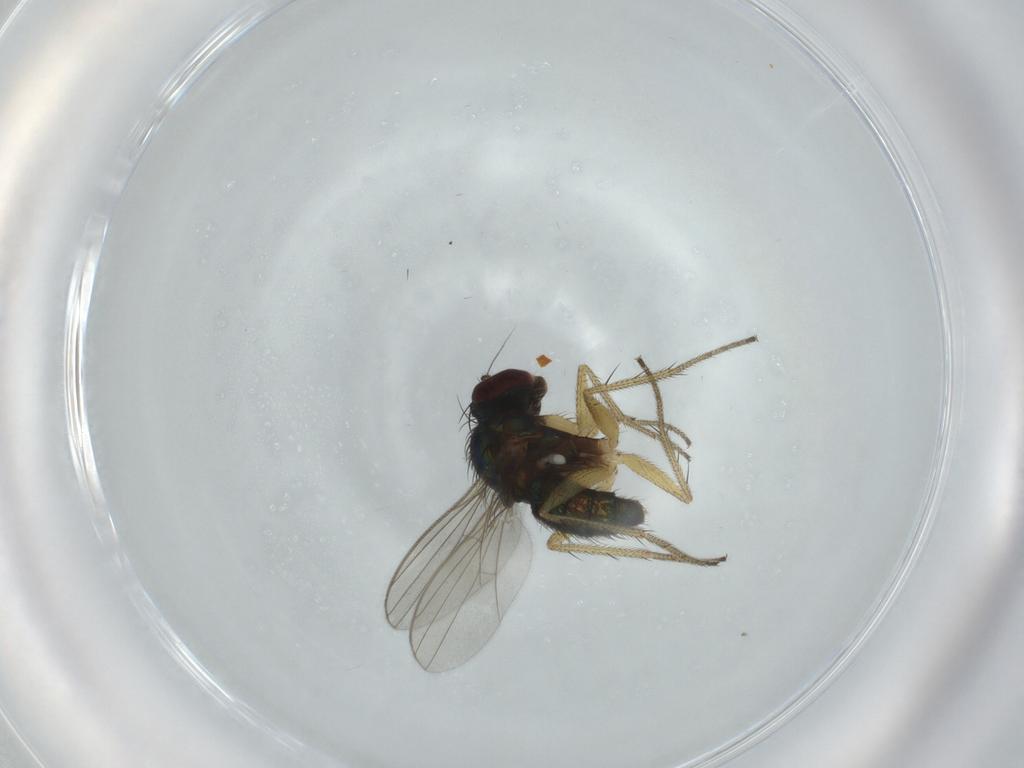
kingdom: Animalia
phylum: Arthropoda
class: Insecta
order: Diptera
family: Dolichopodidae
